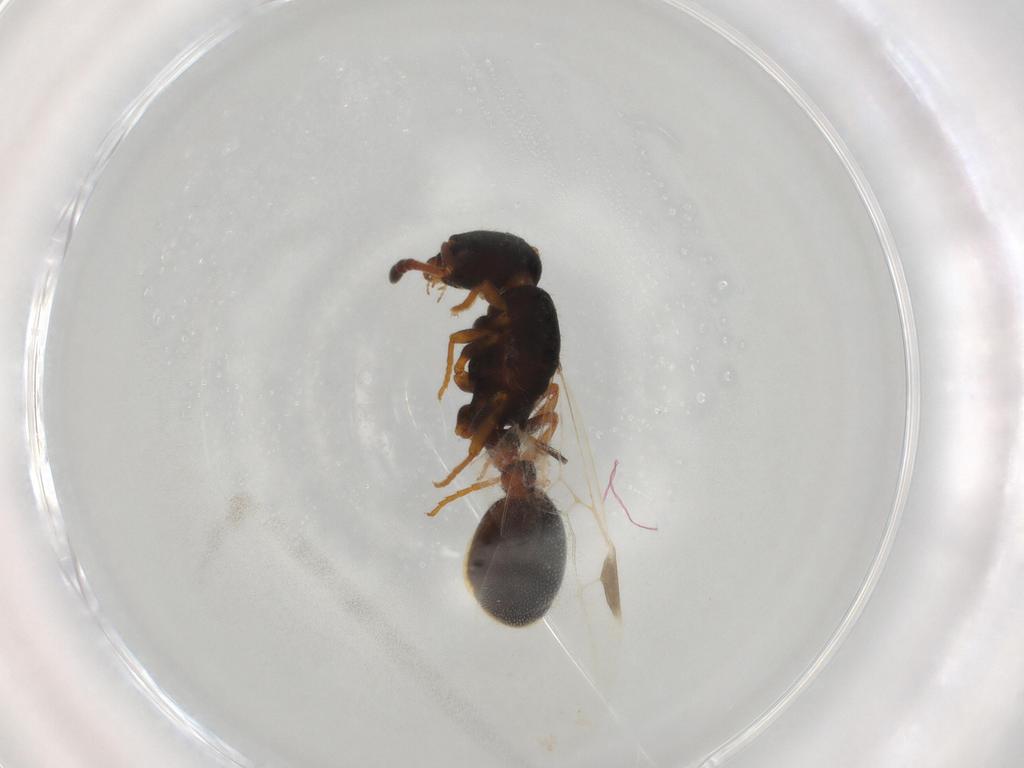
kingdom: Animalia
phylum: Arthropoda
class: Insecta
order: Hymenoptera
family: Formicidae
